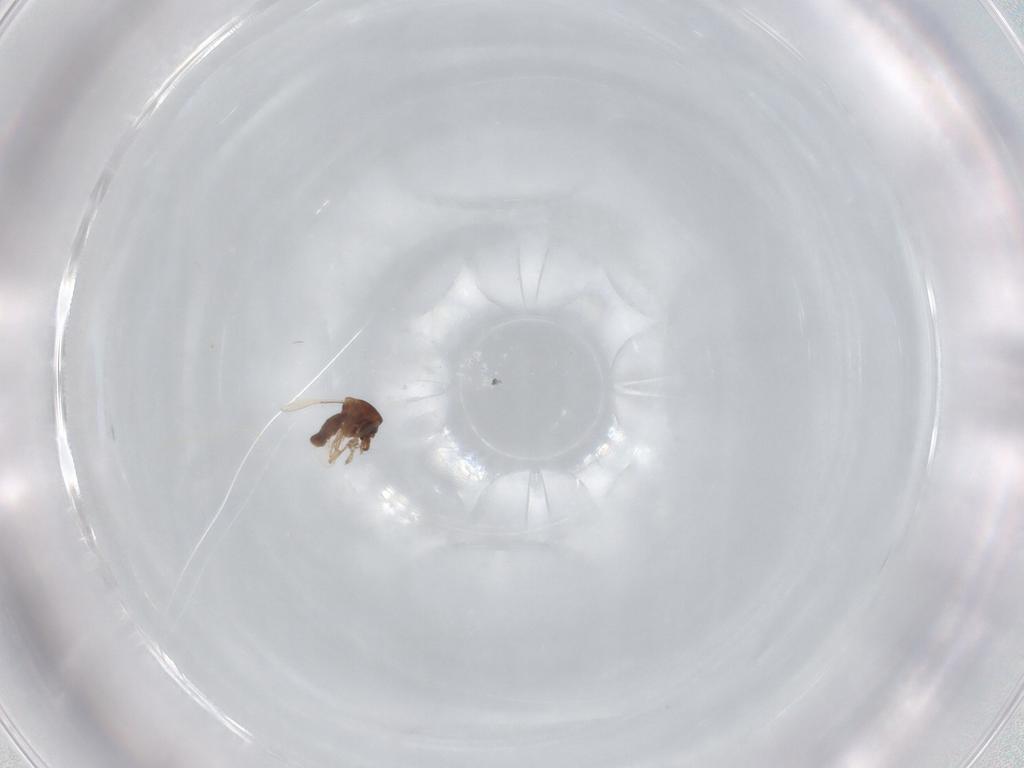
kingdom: Animalia
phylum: Arthropoda
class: Insecta
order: Diptera
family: Ceratopogonidae
